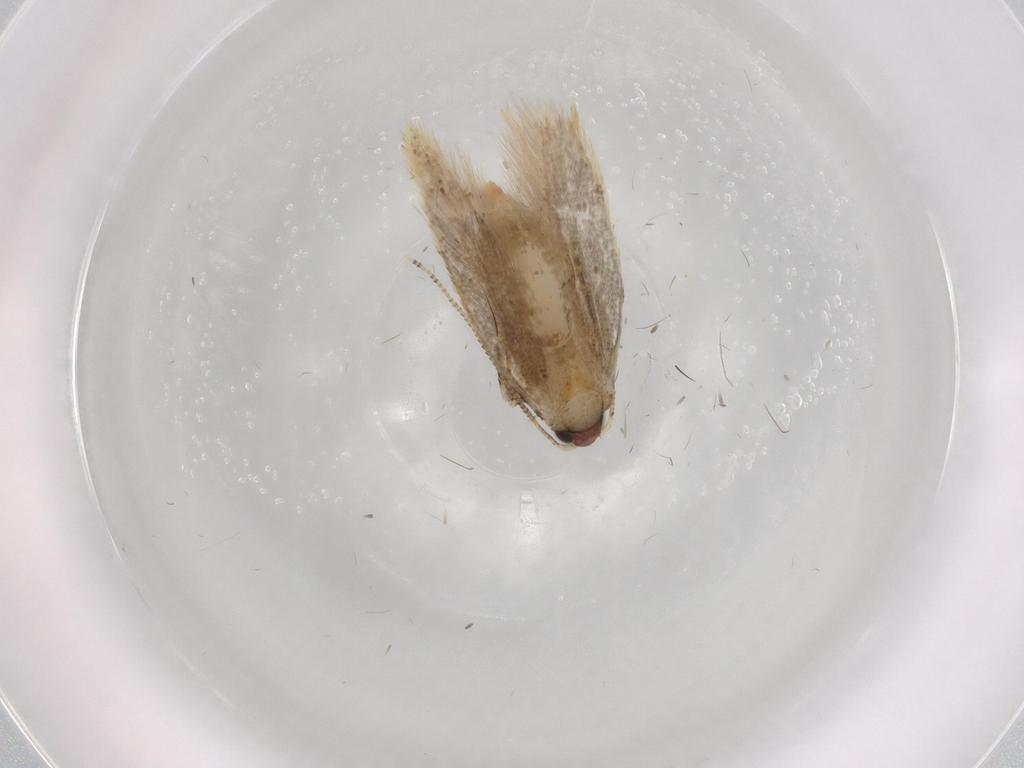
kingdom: Animalia
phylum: Arthropoda
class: Insecta
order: Lepidoptera
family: Tineidae
